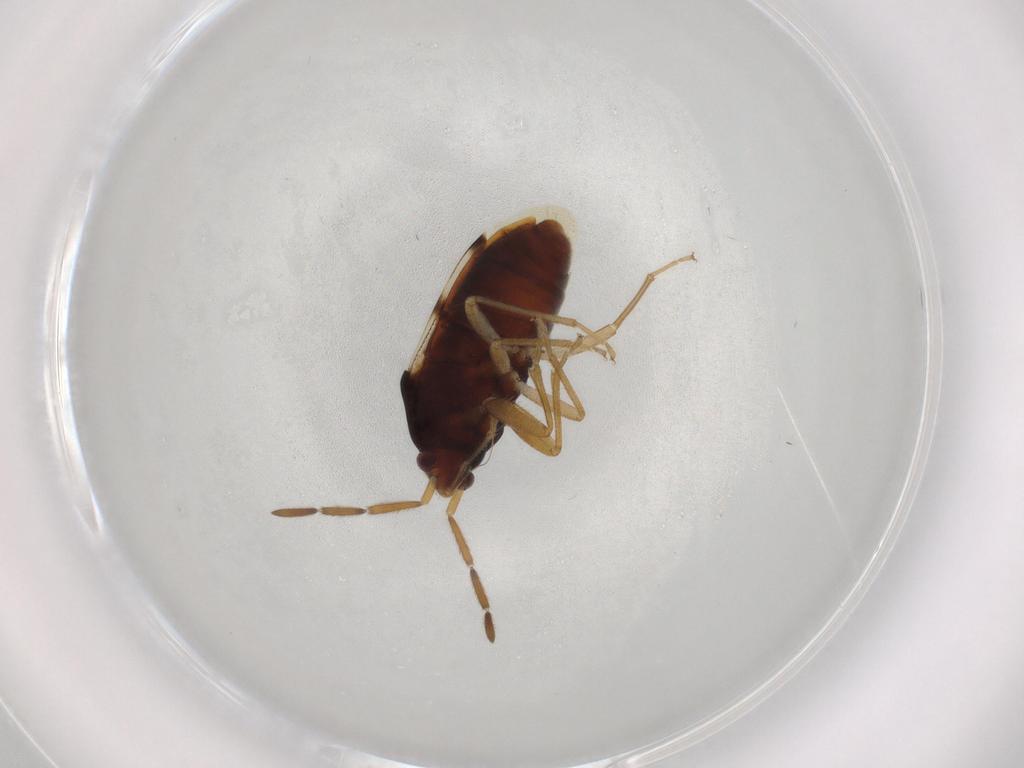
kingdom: Animalia
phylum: Arthropoda
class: Insecta
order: Hemiptera
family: Rhyparochromidae
